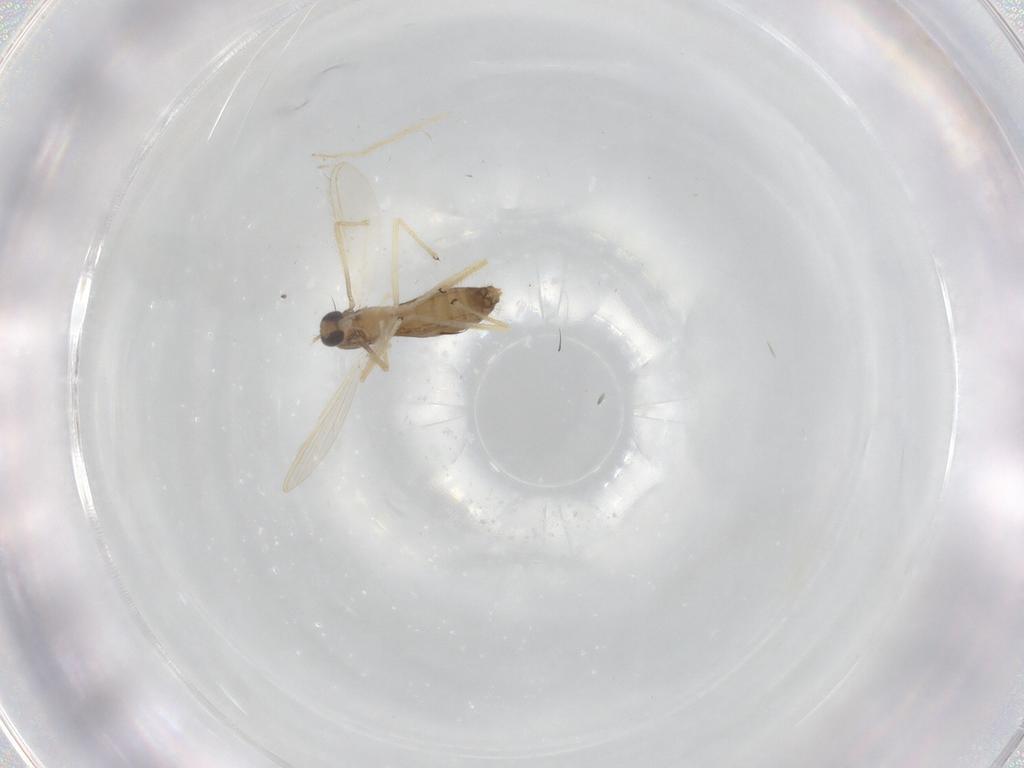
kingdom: Animalia
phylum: Arthropoda
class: Insecta
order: Diptera
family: Chironomidae
